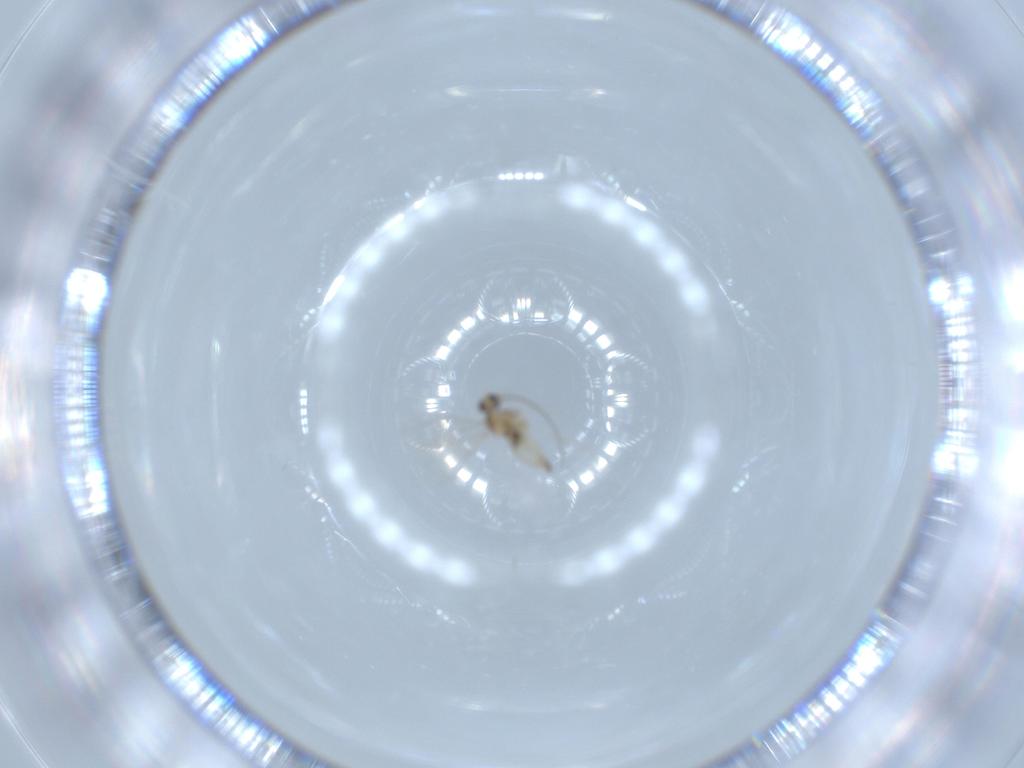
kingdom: Animalia
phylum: Arthropoda
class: Insecta
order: Diptera
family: Cecidomyiidae
